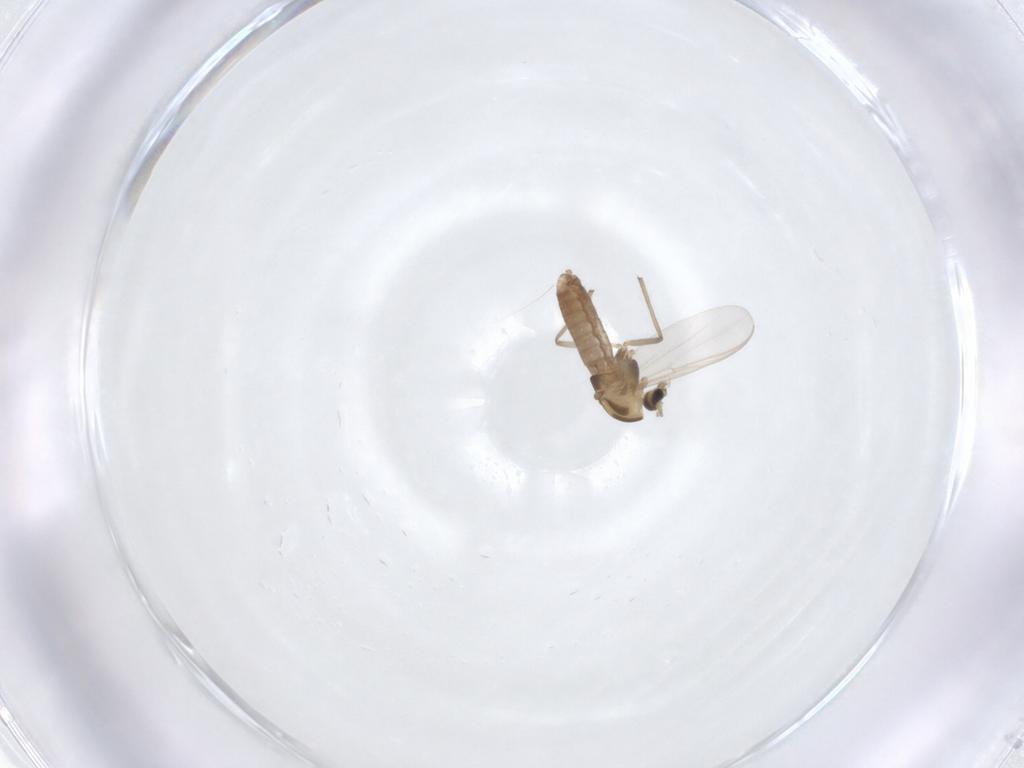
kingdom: Animalia
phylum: Arthropoda
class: Insecta
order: Diptera
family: Chironomidae
